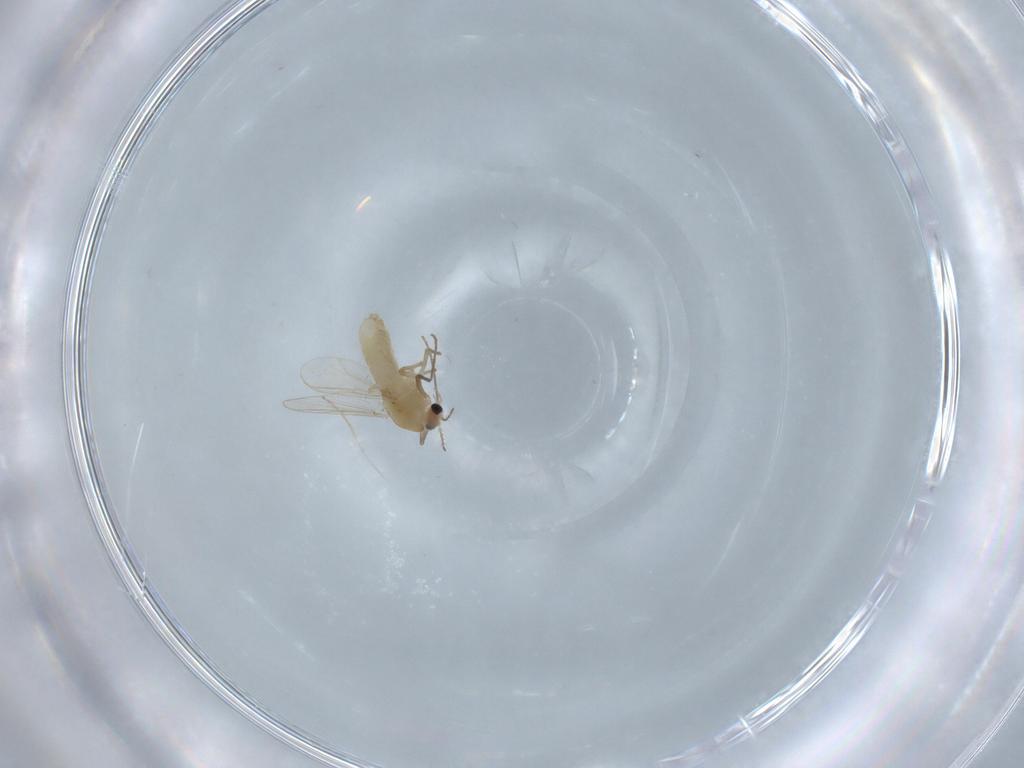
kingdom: Animalia
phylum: Arthropoda
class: Insecta
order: Diptera
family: Chironomidae
